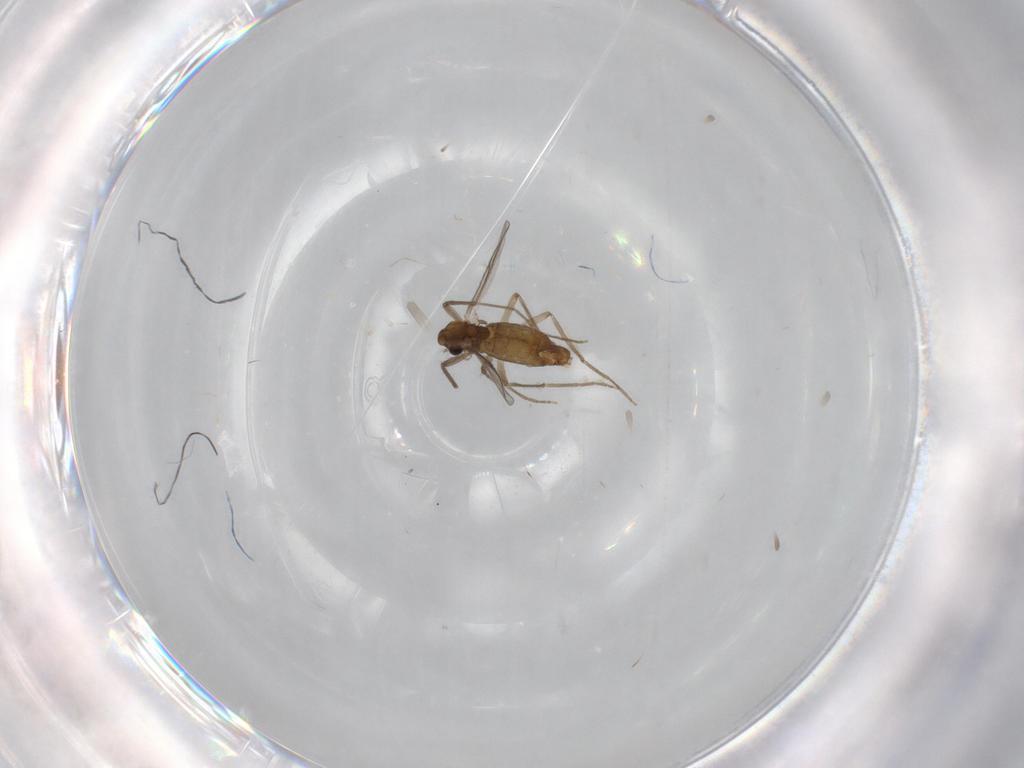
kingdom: Animalia
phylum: Arthropoda
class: Insecta
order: Diptera
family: Chironomidae
